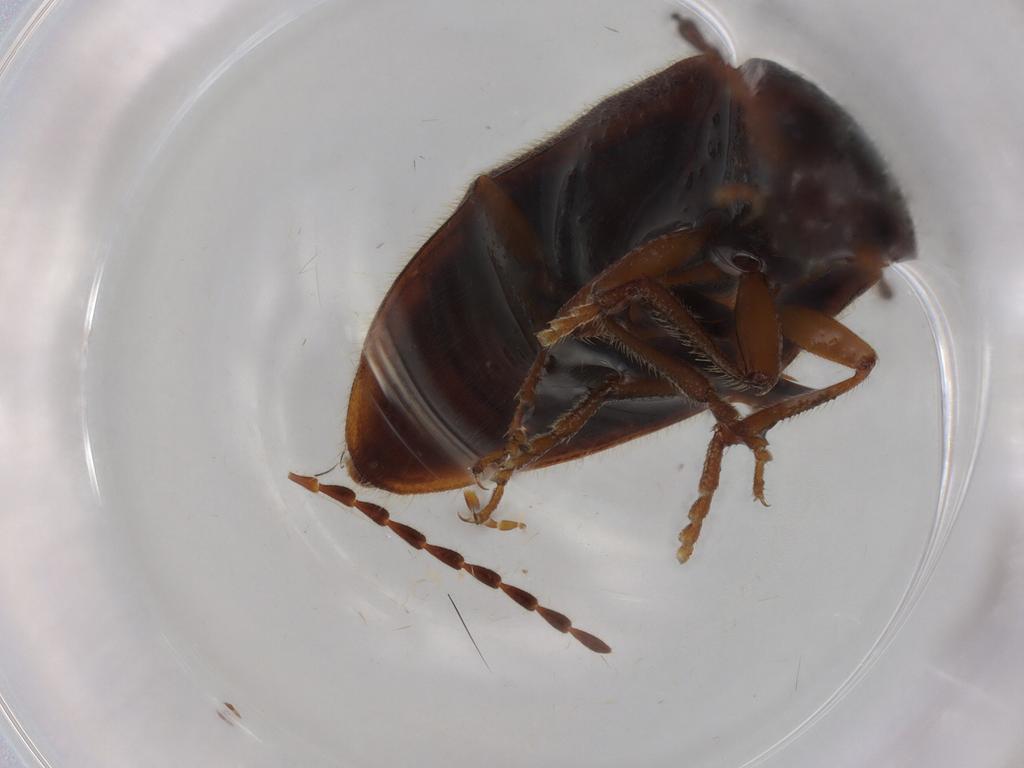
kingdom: Animalia
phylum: Arthropoda
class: Insecta
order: Coleoptera
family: Elateridae
